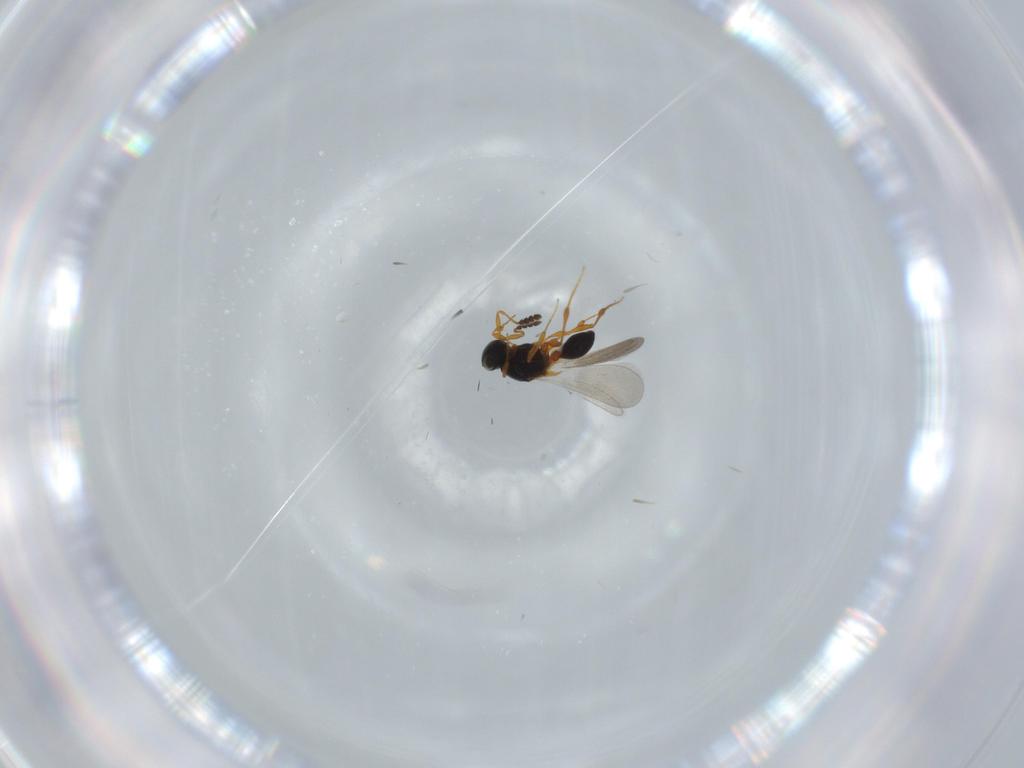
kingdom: Animalia
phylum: Arthropoda
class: Insecta
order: Hymenoptera
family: Platygastridae
